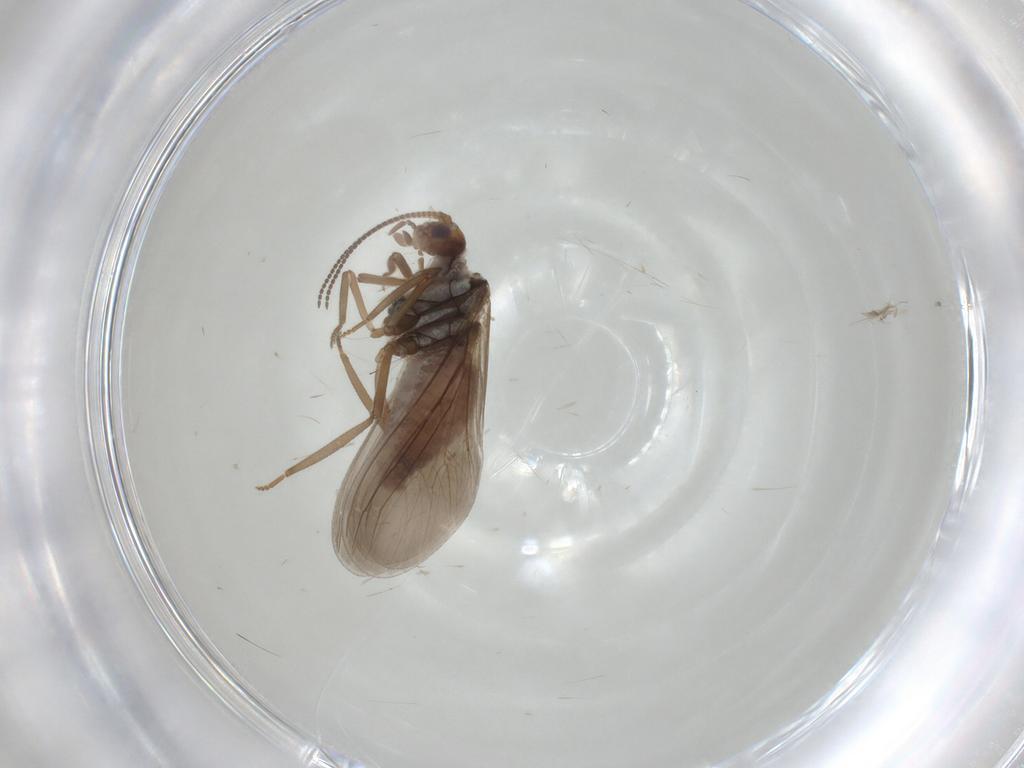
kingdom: Animalia
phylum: Arthropoda
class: Insecta
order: Neuroptera
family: Coniopterygidae
